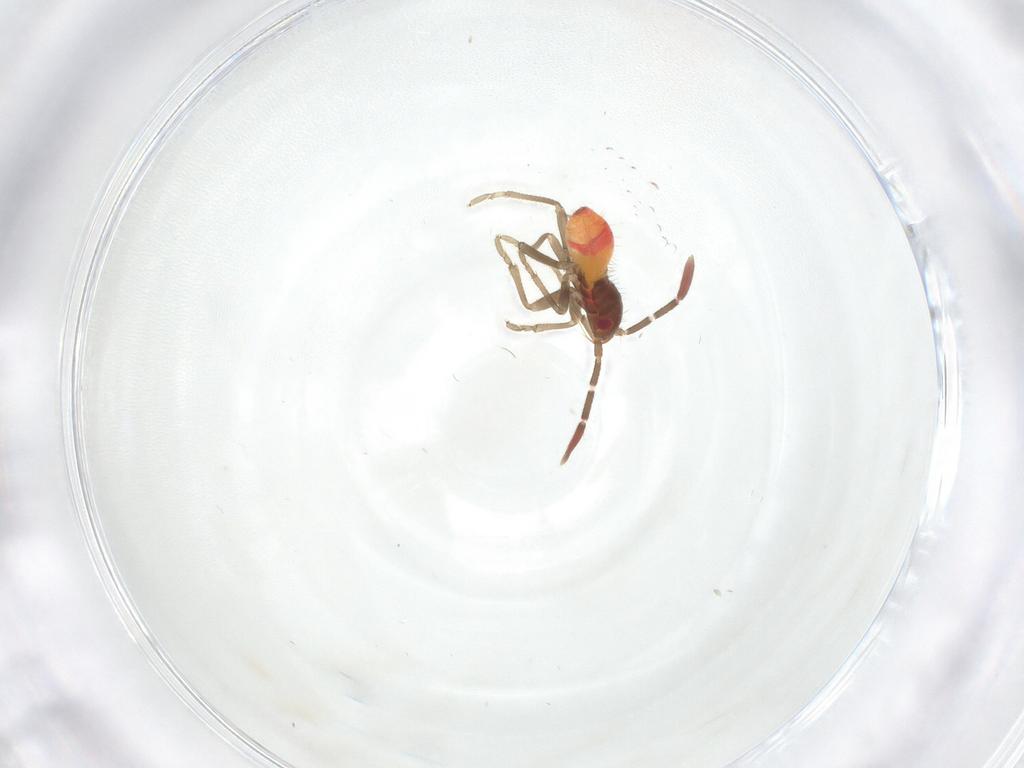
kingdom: Animalia
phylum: Arthropoda
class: Insecta
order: Hemiptera
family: Rhyparochromidae
